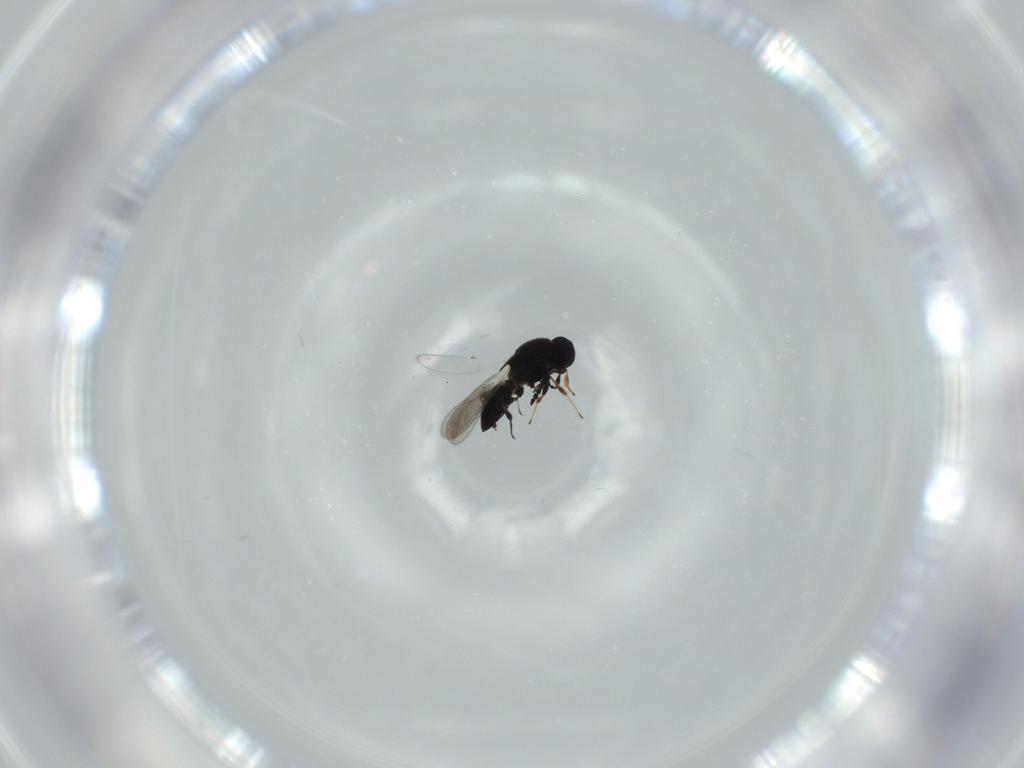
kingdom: Animalia
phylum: Arthropoda
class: Insecta
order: Hymenoptera
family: Platygastridae
